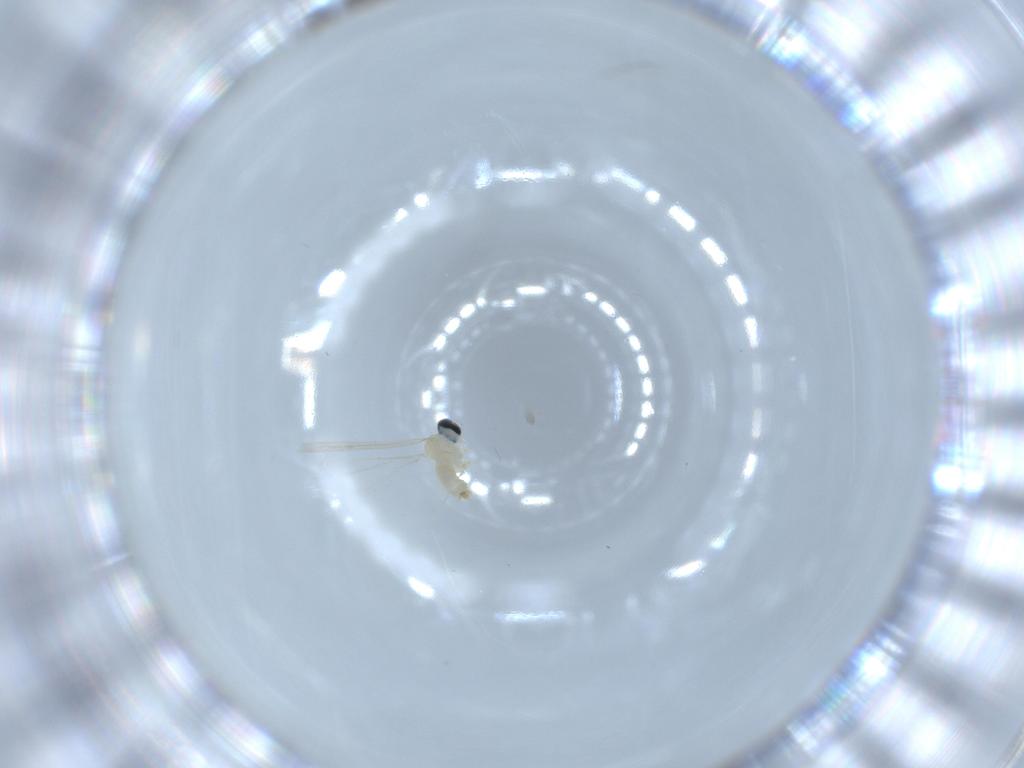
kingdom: Animalia
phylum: Arthropoda
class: Insecta
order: Diptera
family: Cecidomyiidae
